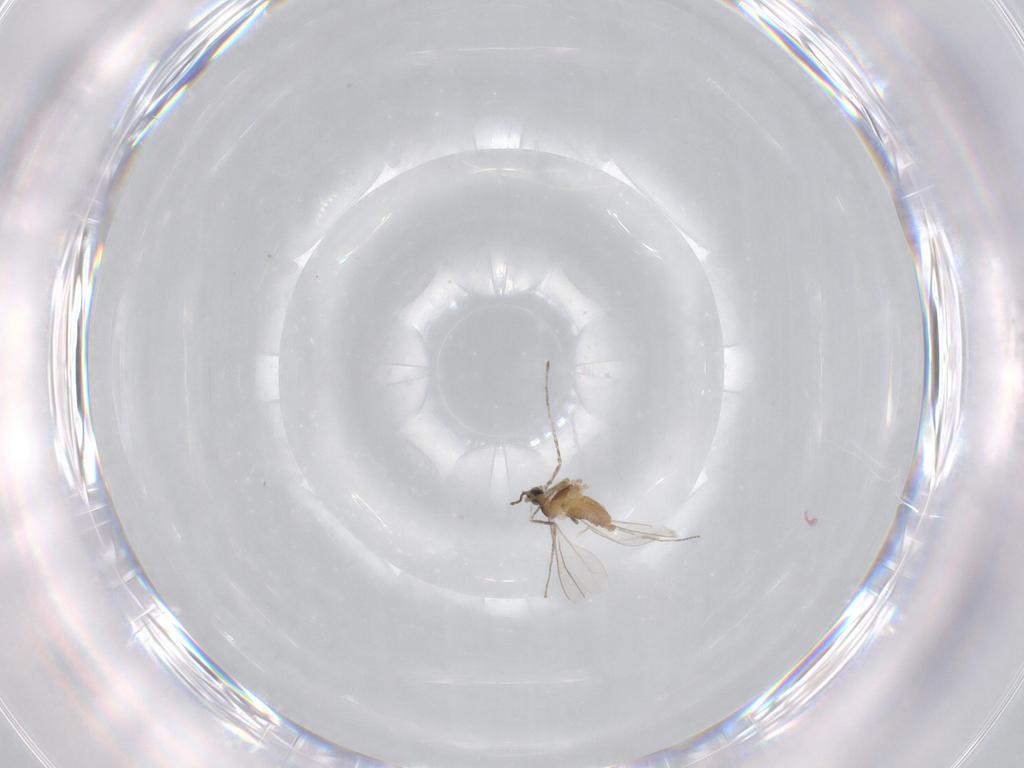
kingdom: Animalia
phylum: Arthropoda
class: Insecta
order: Diptera
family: Cecidomyiidae
